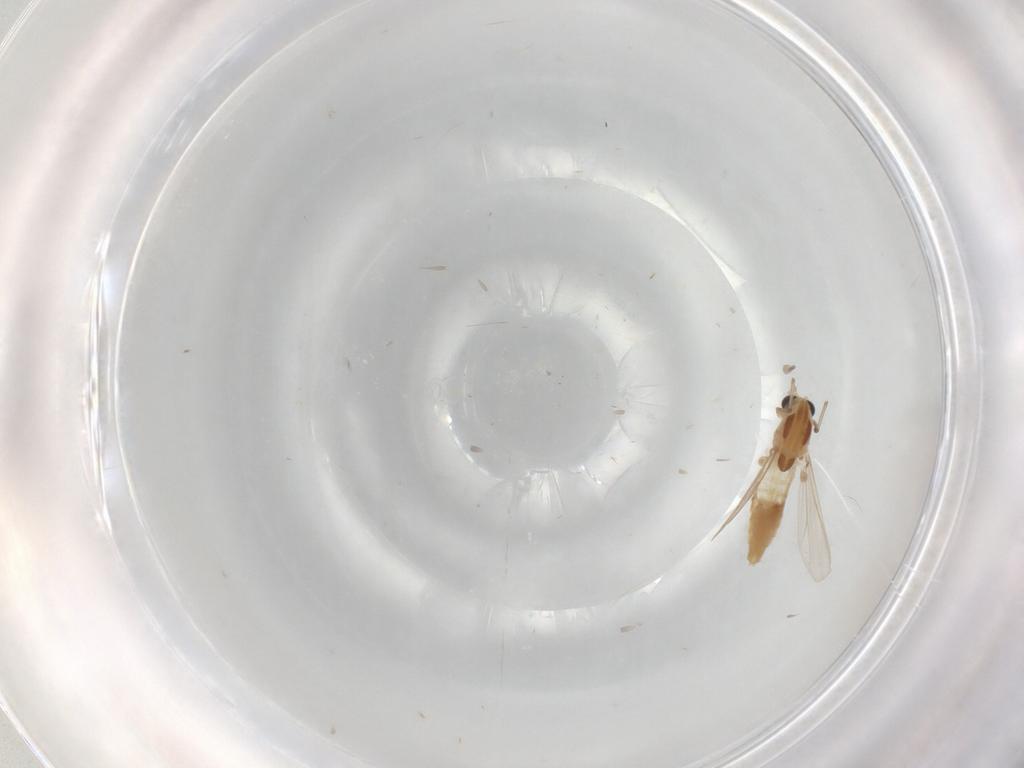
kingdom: Animalia
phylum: Arthropoda
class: Insecta
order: Diptera
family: Chironomidae
